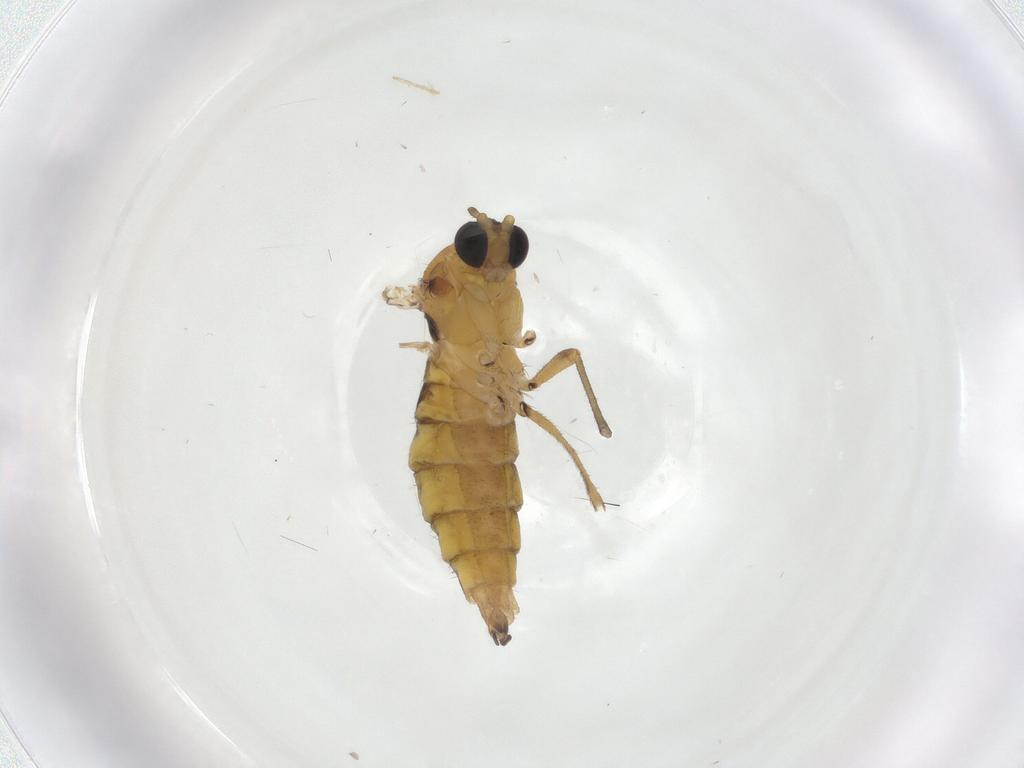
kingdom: Animalia
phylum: Arthropoda
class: Insecta
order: Diptera
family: Sciaridae
